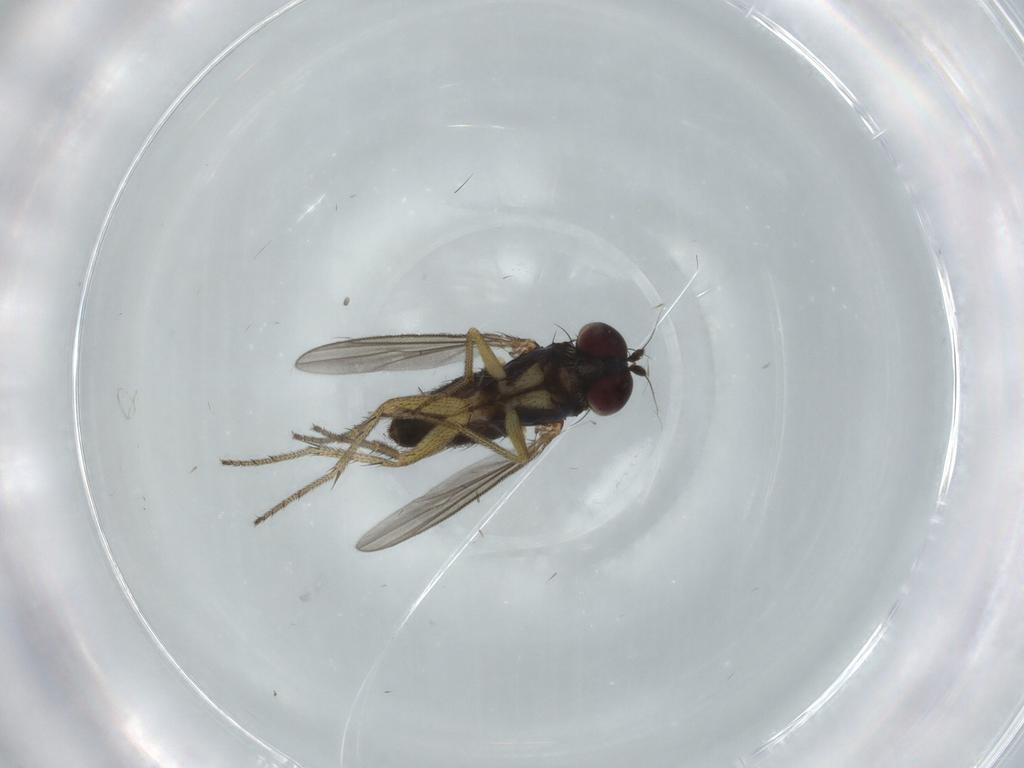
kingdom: Animalia
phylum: Arthropoda
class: Insecta
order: Diptera
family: Dolichopodidae
